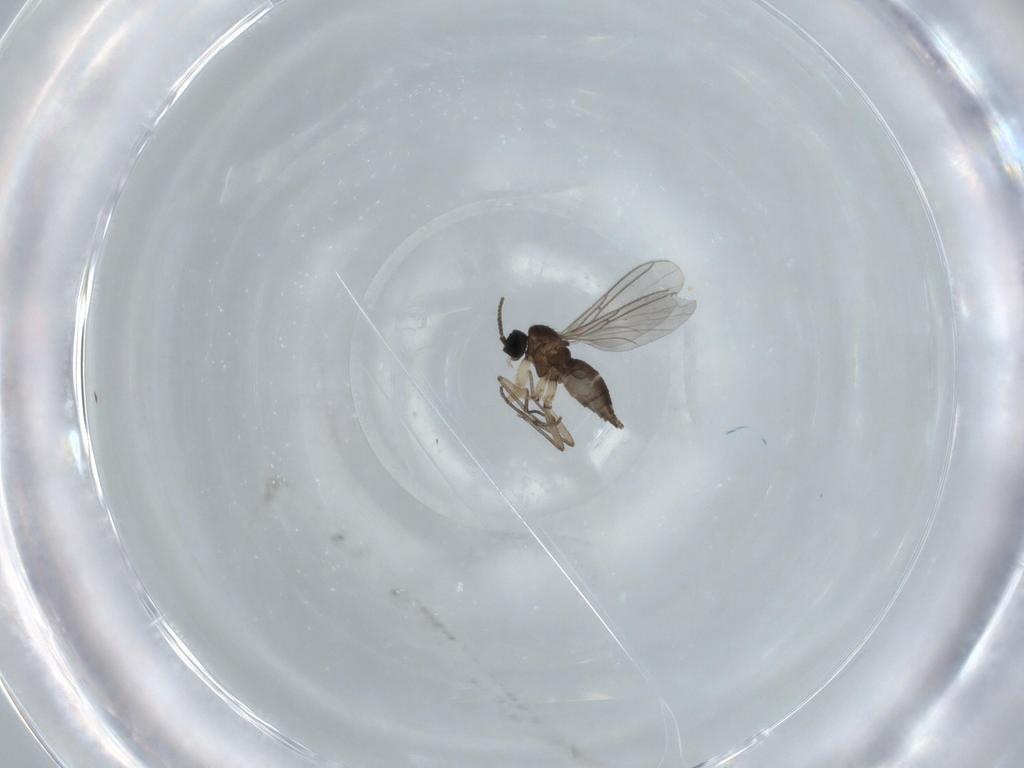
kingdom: Animalia
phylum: Arthropoda
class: Insecta
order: Diptera
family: Sciaridae
